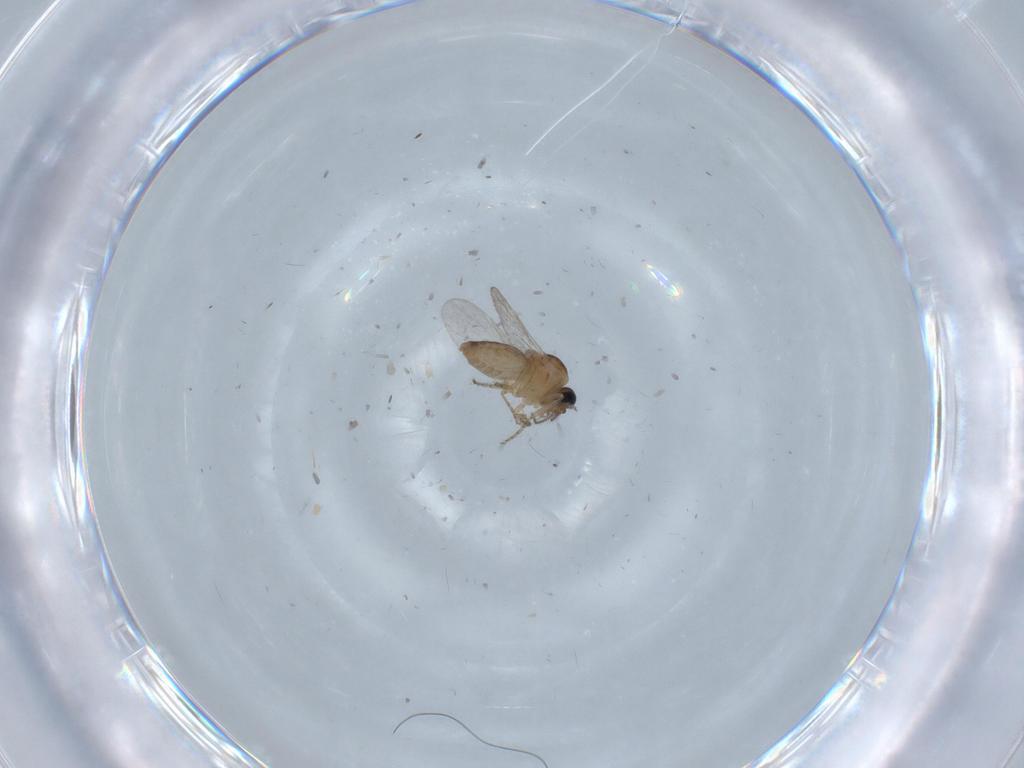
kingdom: Animalia
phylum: Arthropoda
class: Insecta
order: Diptera
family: Ceratopogonidae
